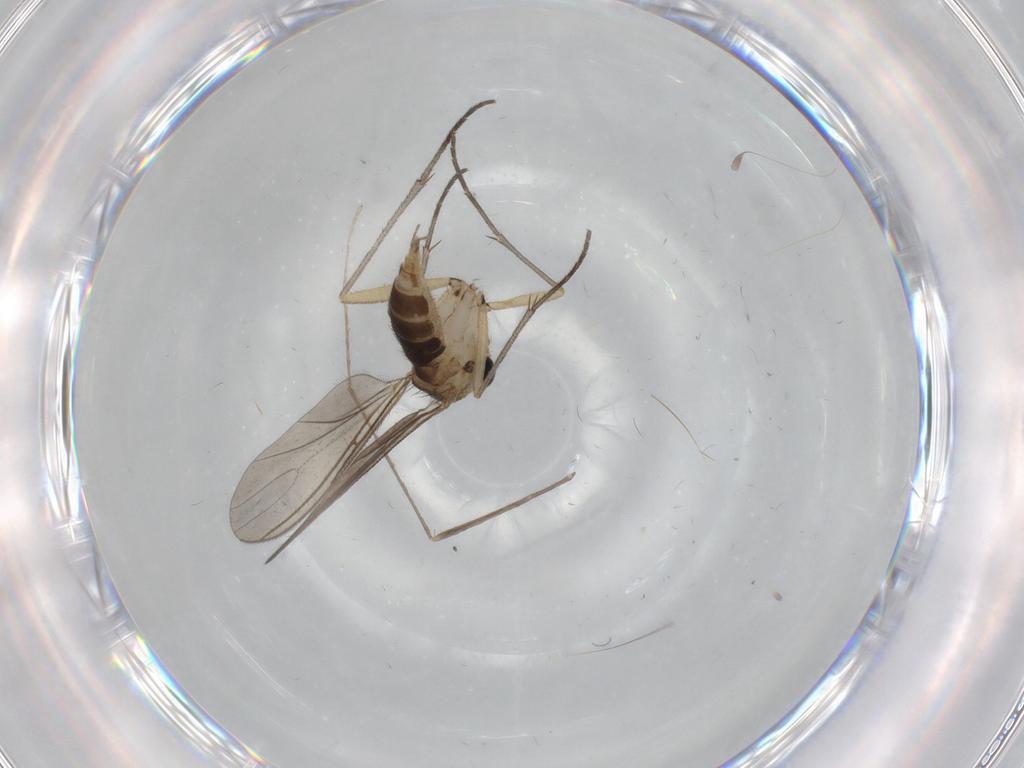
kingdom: Animalia
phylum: Arthropoda
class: Insecta
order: Diptera
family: Sciaridae
